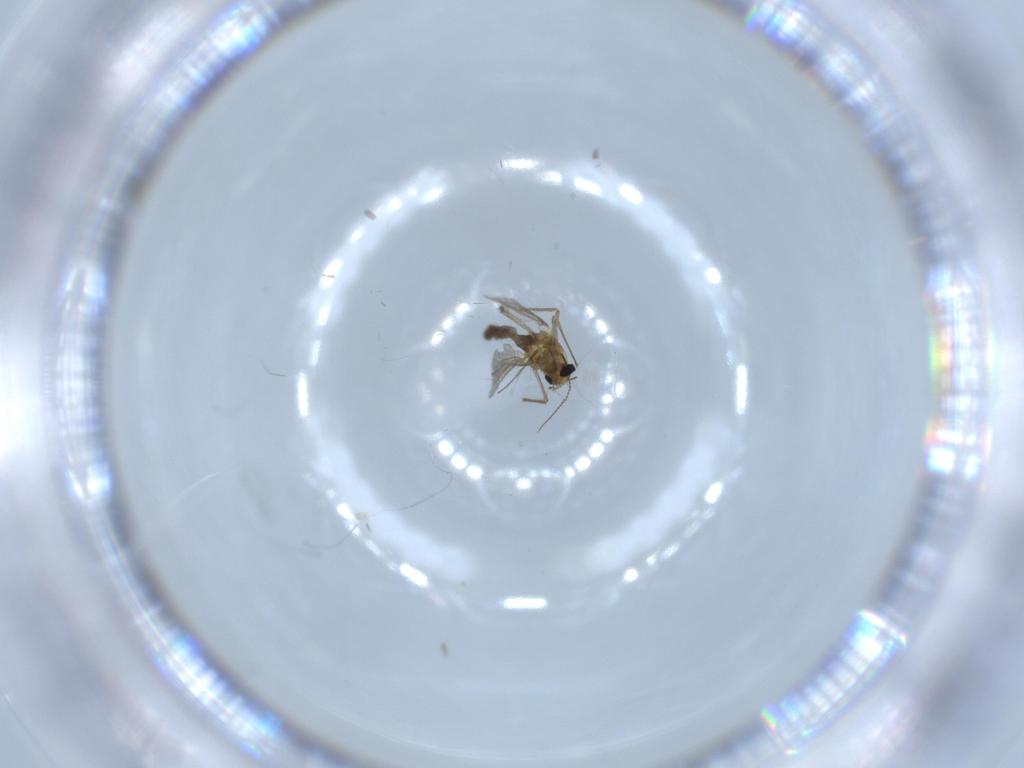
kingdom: Animalia
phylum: Arthropoda
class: Insecta
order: Diptera
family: Chironomidae
